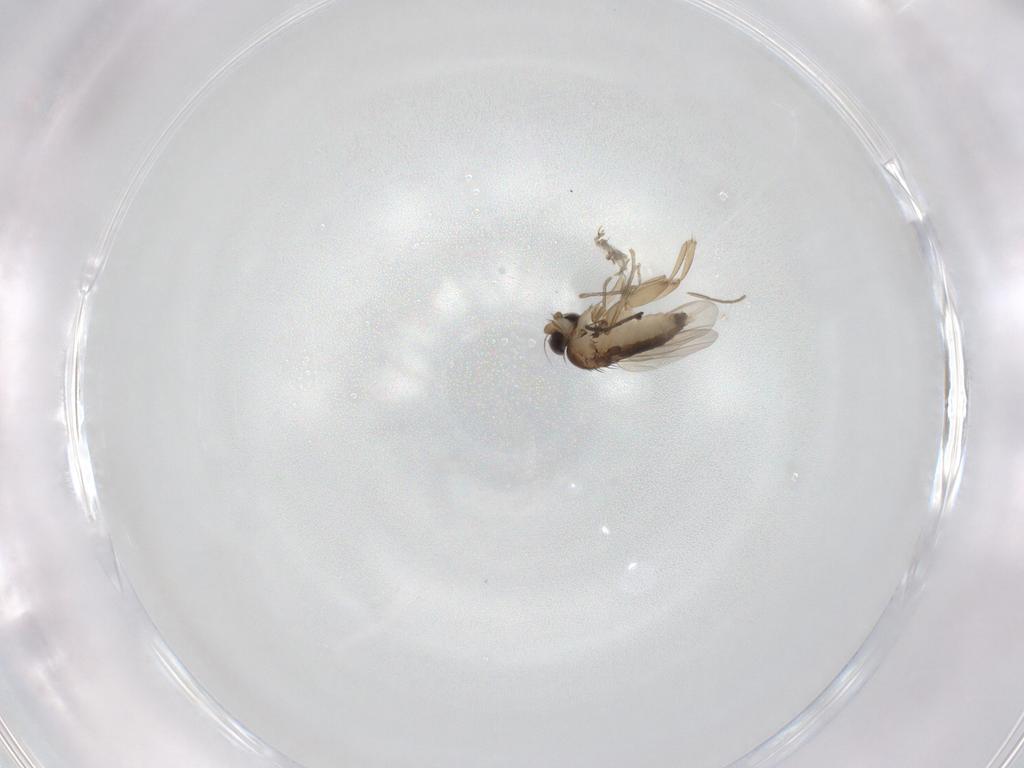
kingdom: Animalia
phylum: Arthropoda
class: Insecta
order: Diptera
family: Phoridae
